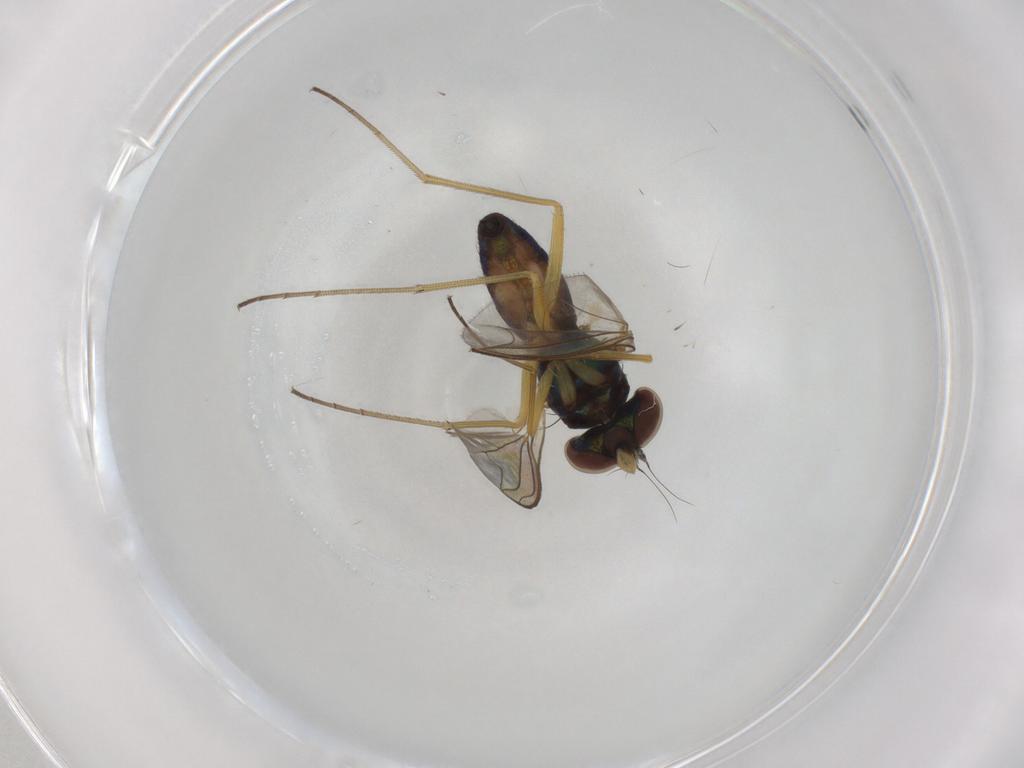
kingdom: Animalia
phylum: Arthropoda
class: Insecta
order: Diptera
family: Dolichopodidae
